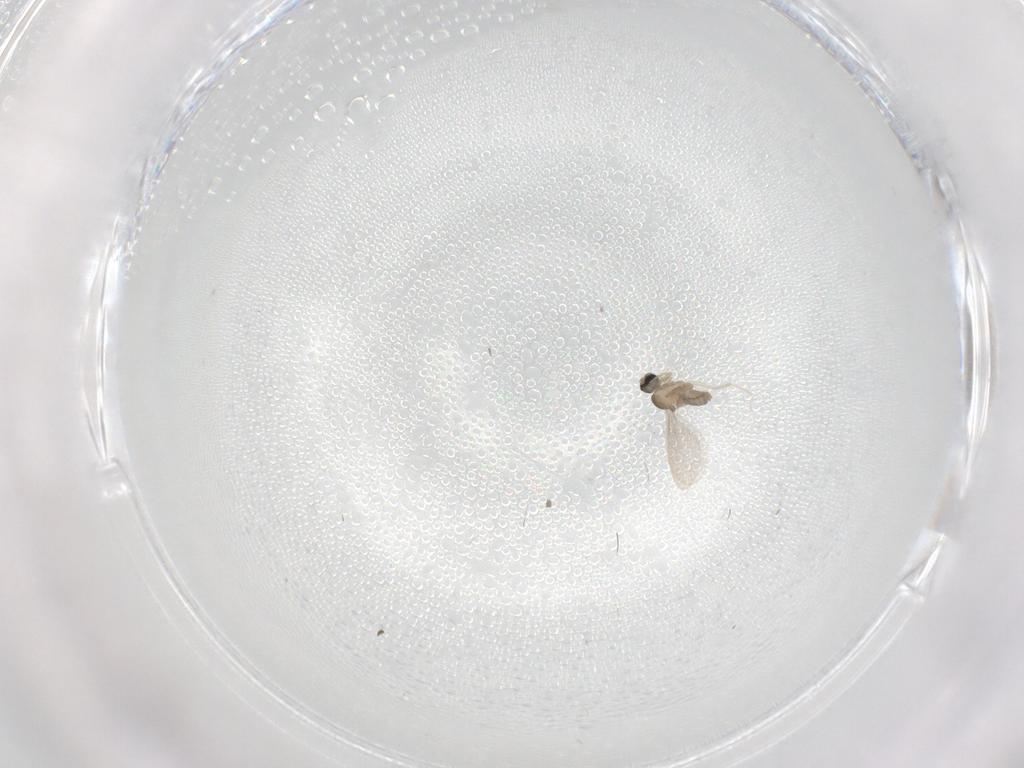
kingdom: Animalia
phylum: Arthropoda
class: Insecta
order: Diptera
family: Cecidomyiidae
